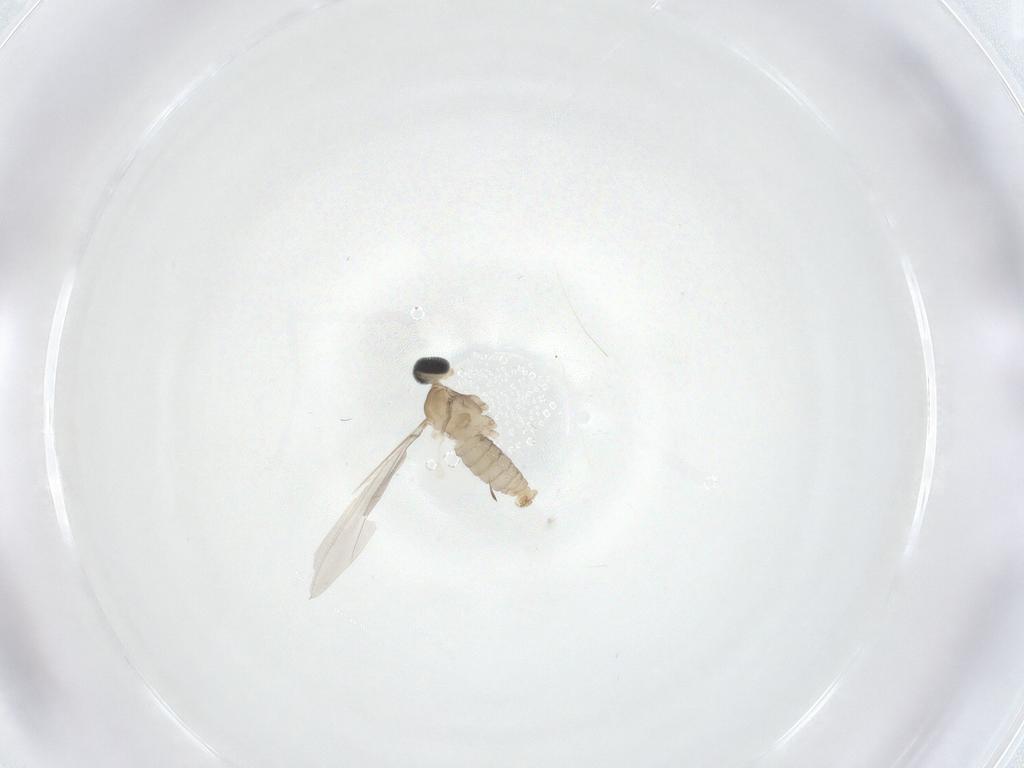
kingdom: Animalia
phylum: Arthropoda
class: Insecta
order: Diptera
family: Cecidomyiidae
